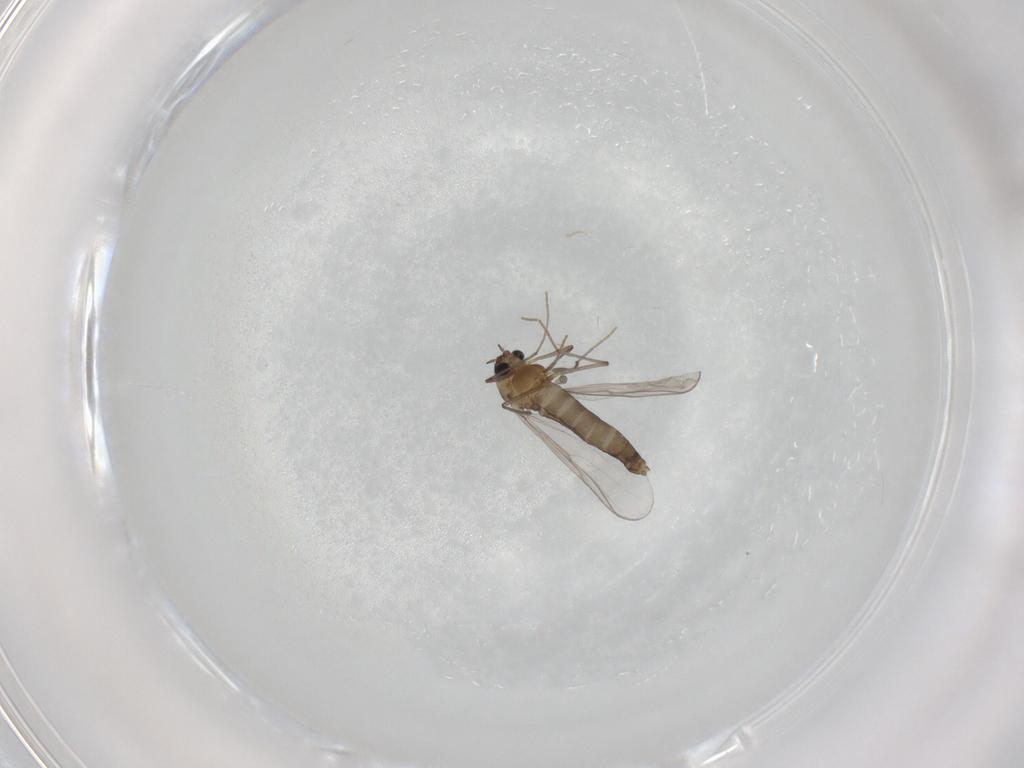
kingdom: Animalia
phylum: Arthropoda
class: Insecta
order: Diptera
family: Chironomidae
